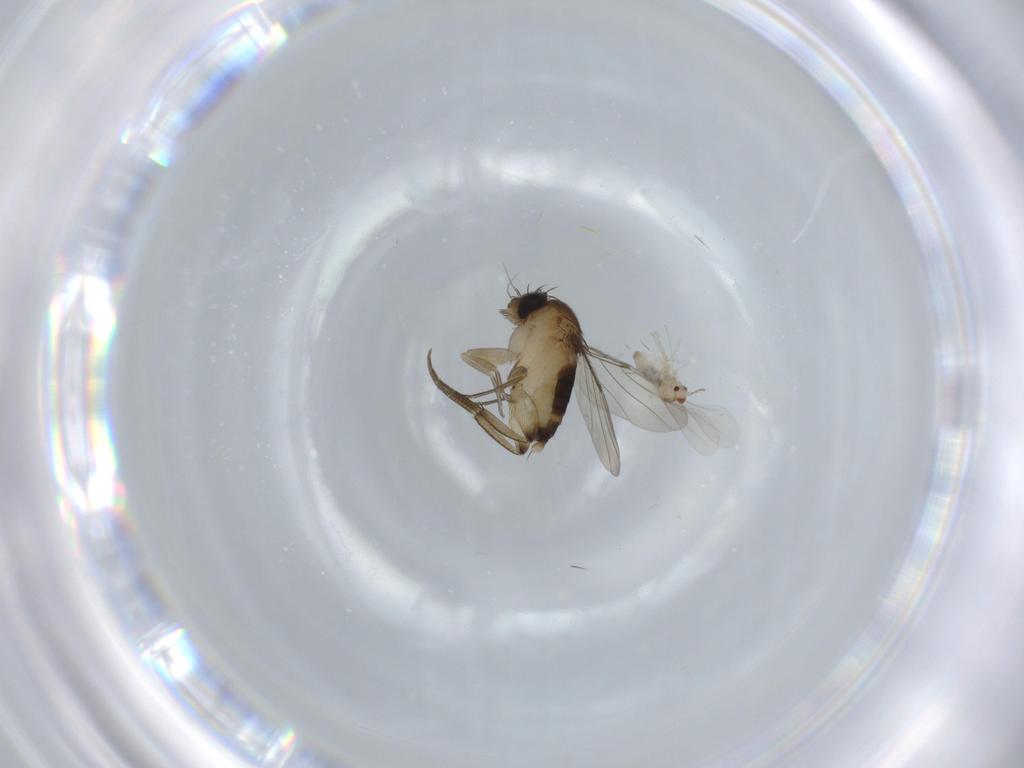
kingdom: Animalia
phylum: Arthropoda
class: Insecta
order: Diptera
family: Phoridae
